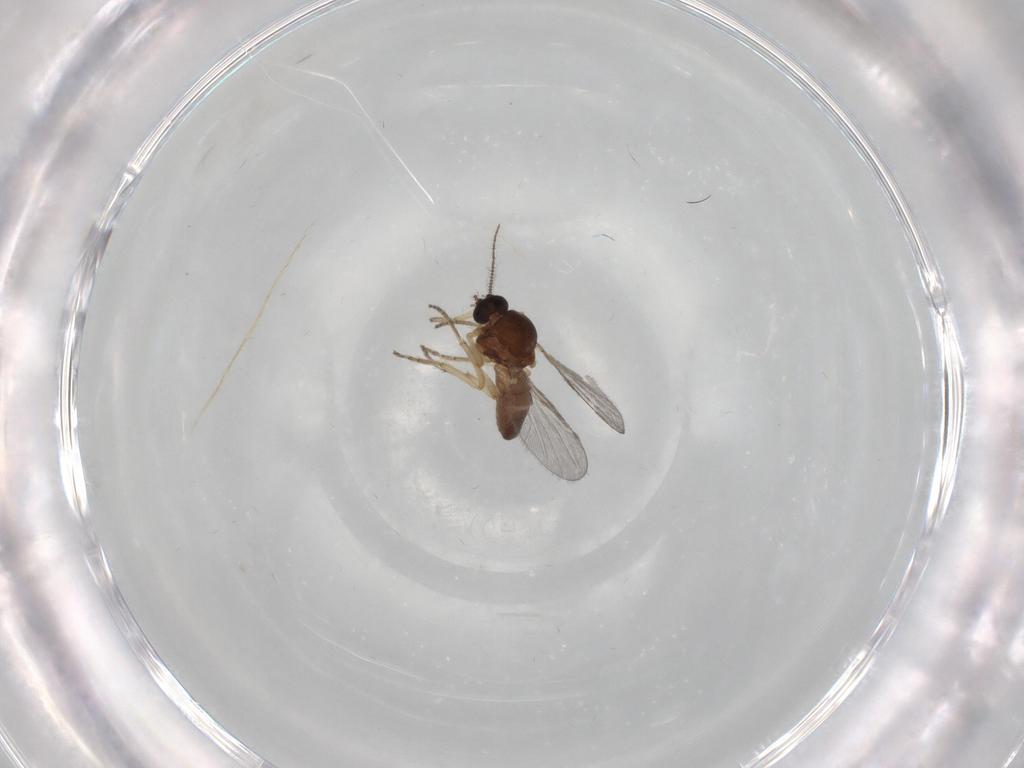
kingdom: Animalia
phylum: Arthropoda
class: Insecta
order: Diptera
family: Ceratopogonidae
